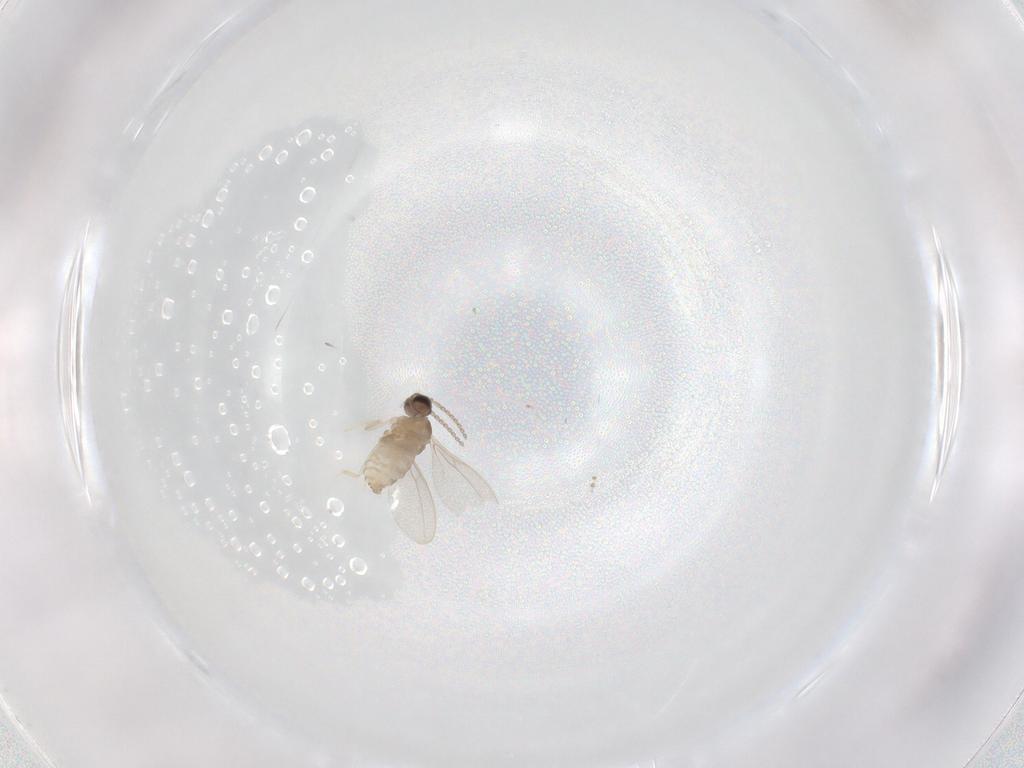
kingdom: Animalia
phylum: Arthropoda
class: Insecta
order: Diptera
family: Cecidomyiidae
